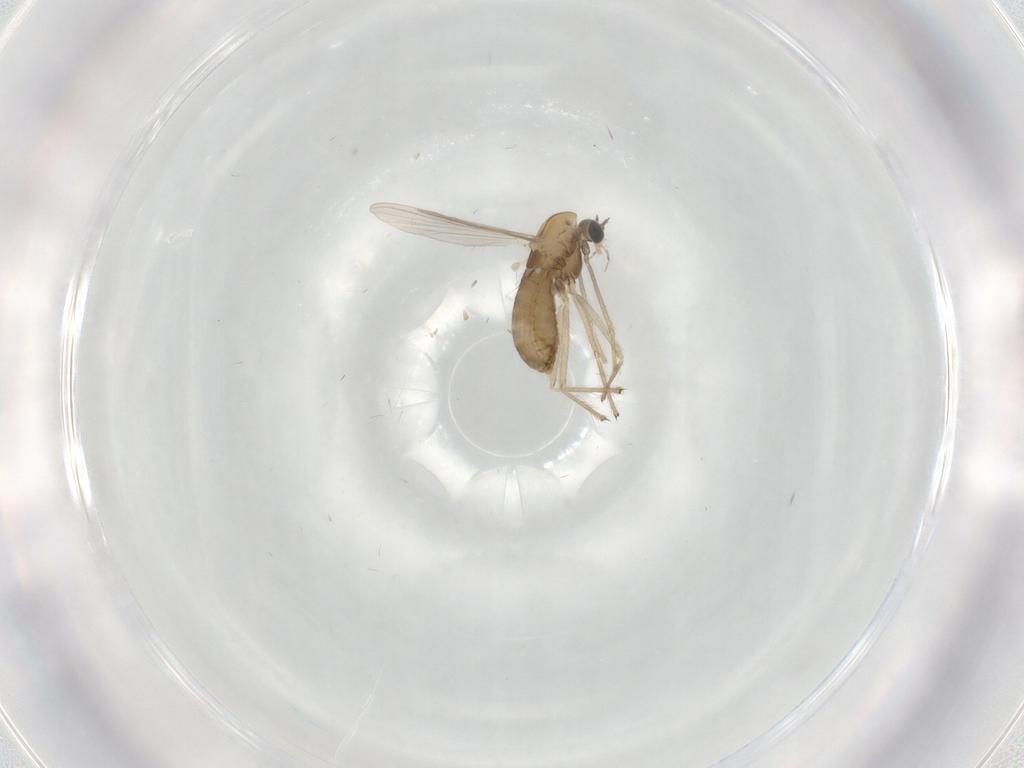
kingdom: Animalia
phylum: Arthropoda
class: Insecta
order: Diptera
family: Chironomidae
